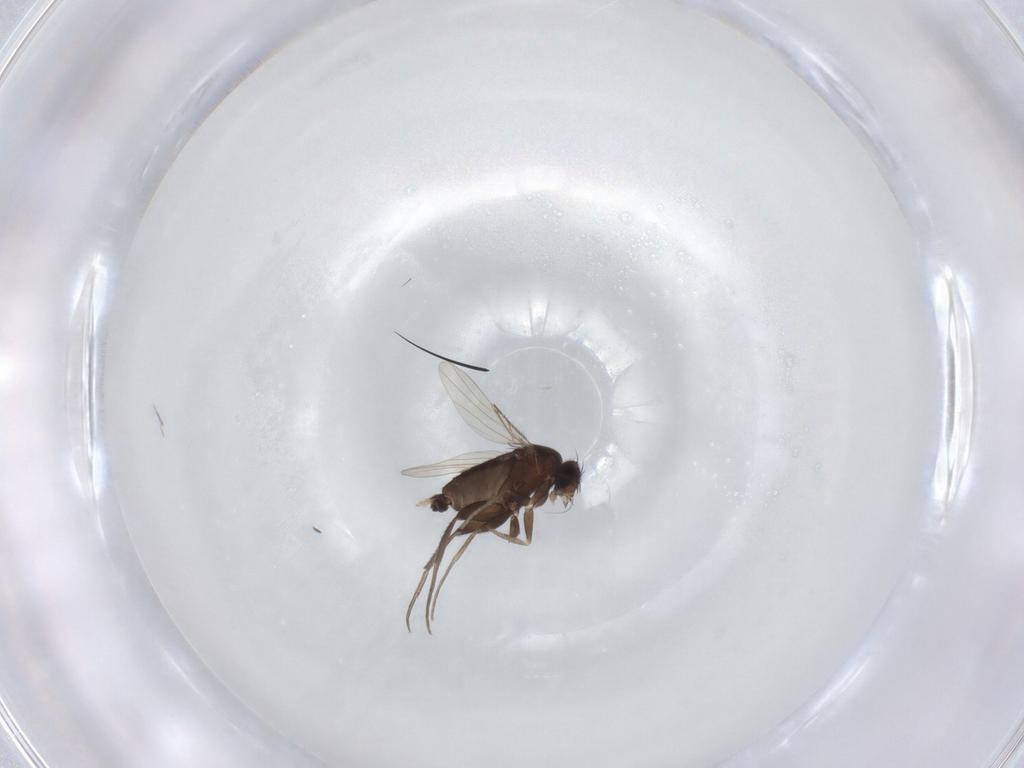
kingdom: Animalia
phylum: Arthropoda
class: Insecta
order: Diptera
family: Phoridae
